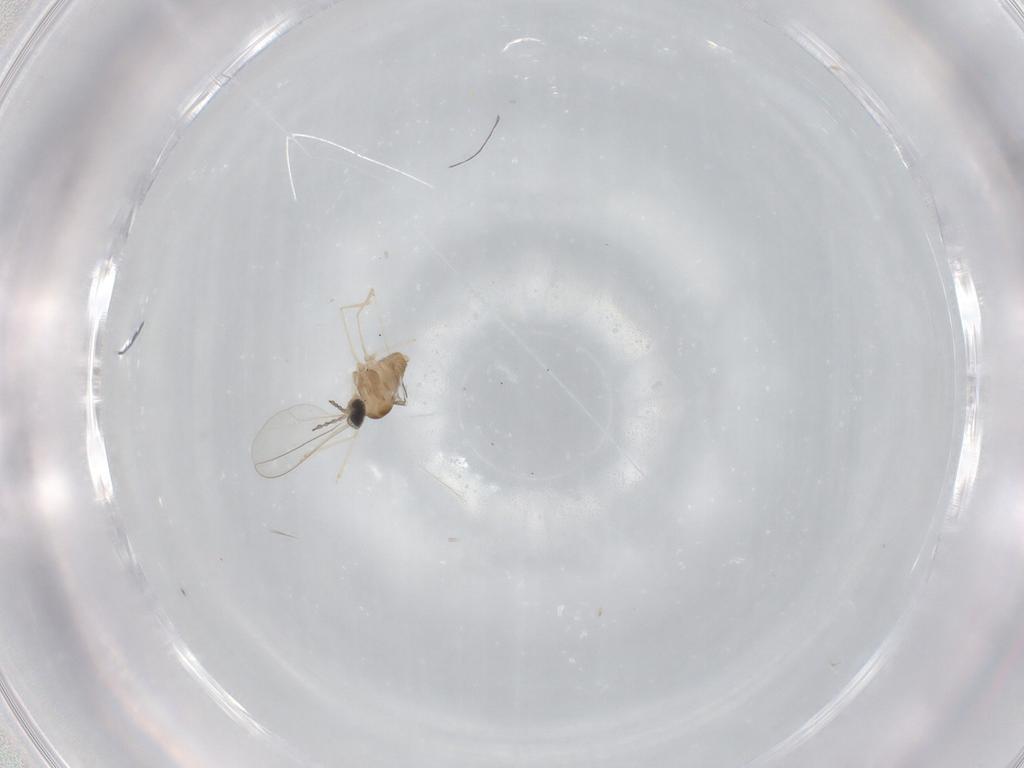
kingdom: Animalia
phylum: Arthropoda
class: Insecta
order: Diptera
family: Cecidomyiidae
